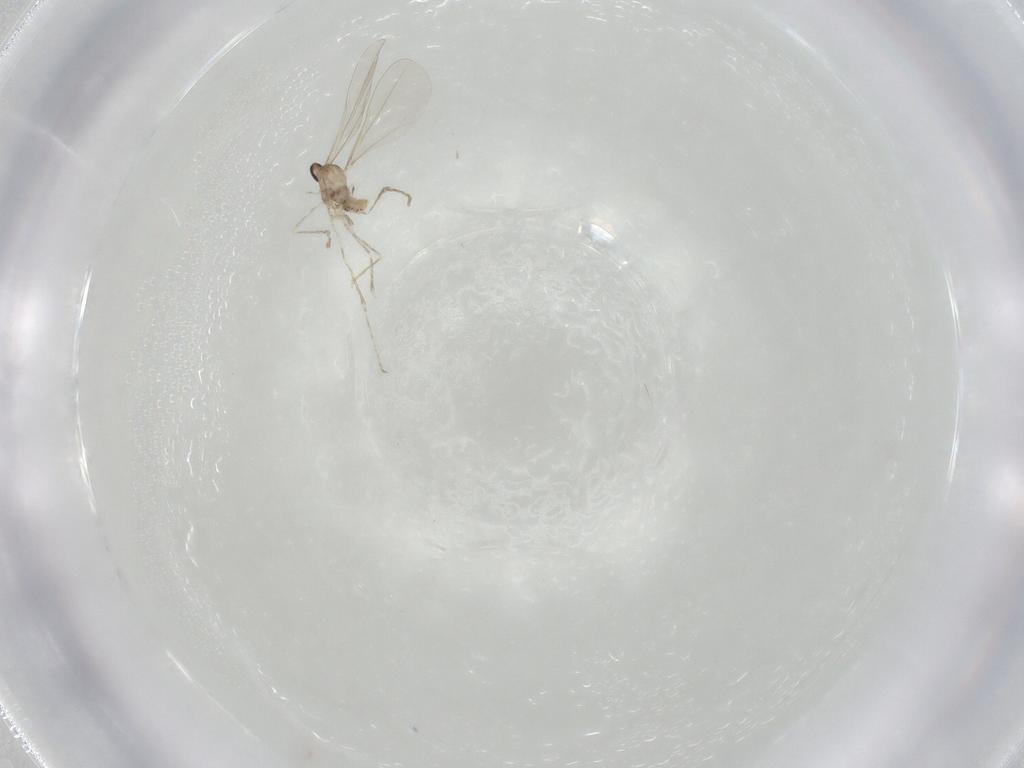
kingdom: Animalia
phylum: Arthropoda
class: Insecta
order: Diptera
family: Cecidomyiidae
